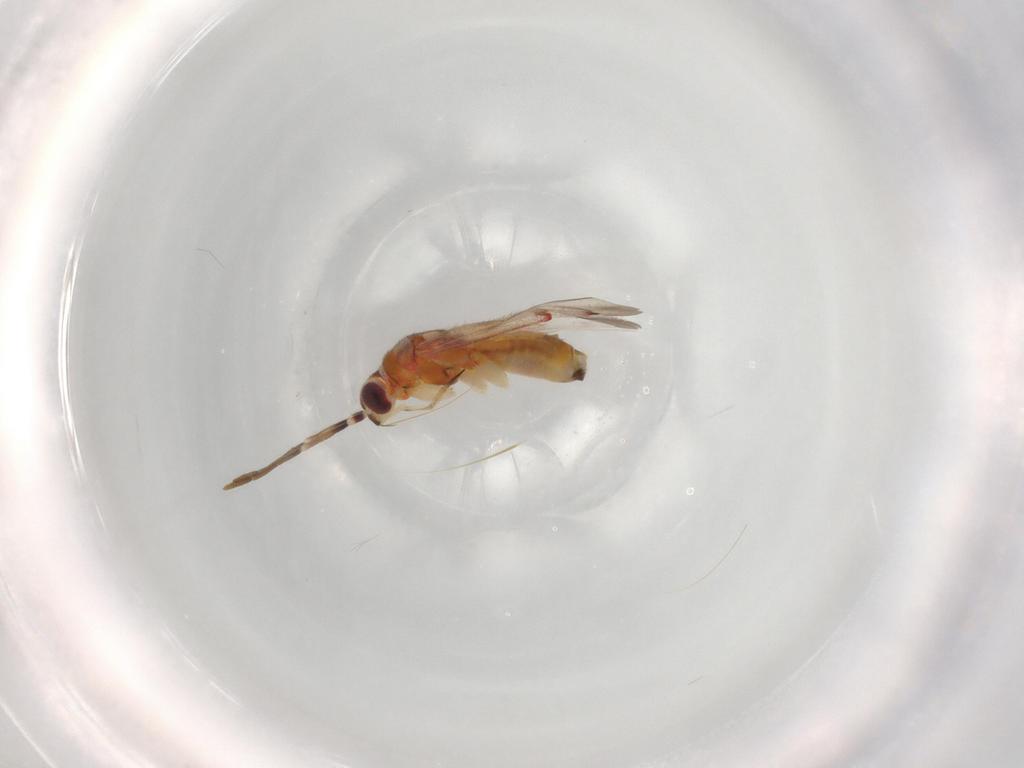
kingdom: Animalia
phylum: Arthropoda
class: Insecta
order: Hemiptera
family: Miridae
